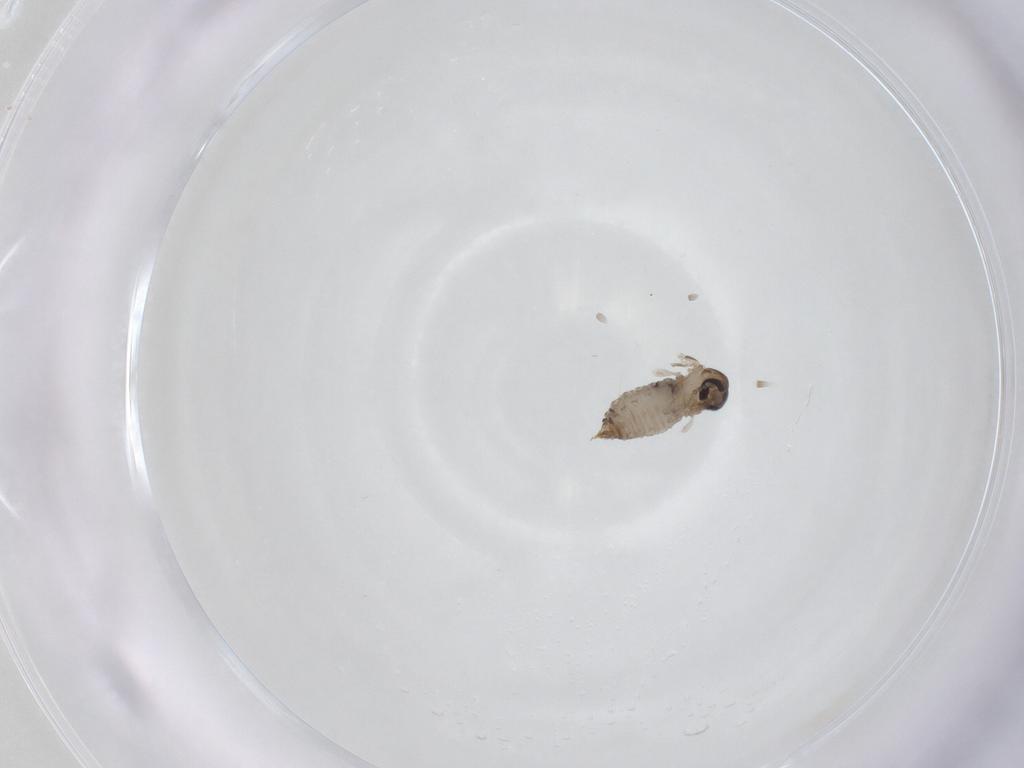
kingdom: Animalia
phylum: Arthropoda
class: Insecta
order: Diptera
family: Psychodidae
